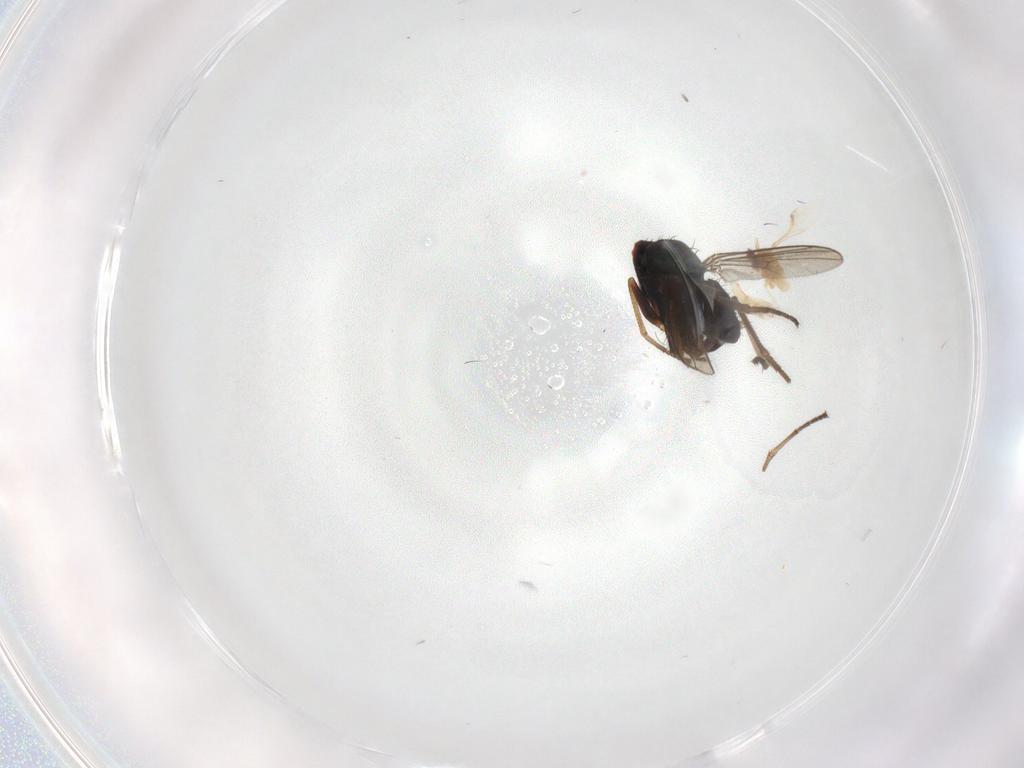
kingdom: Animalia
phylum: Arthropoda
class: Insecta
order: Diptera
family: Dolichopodidae
